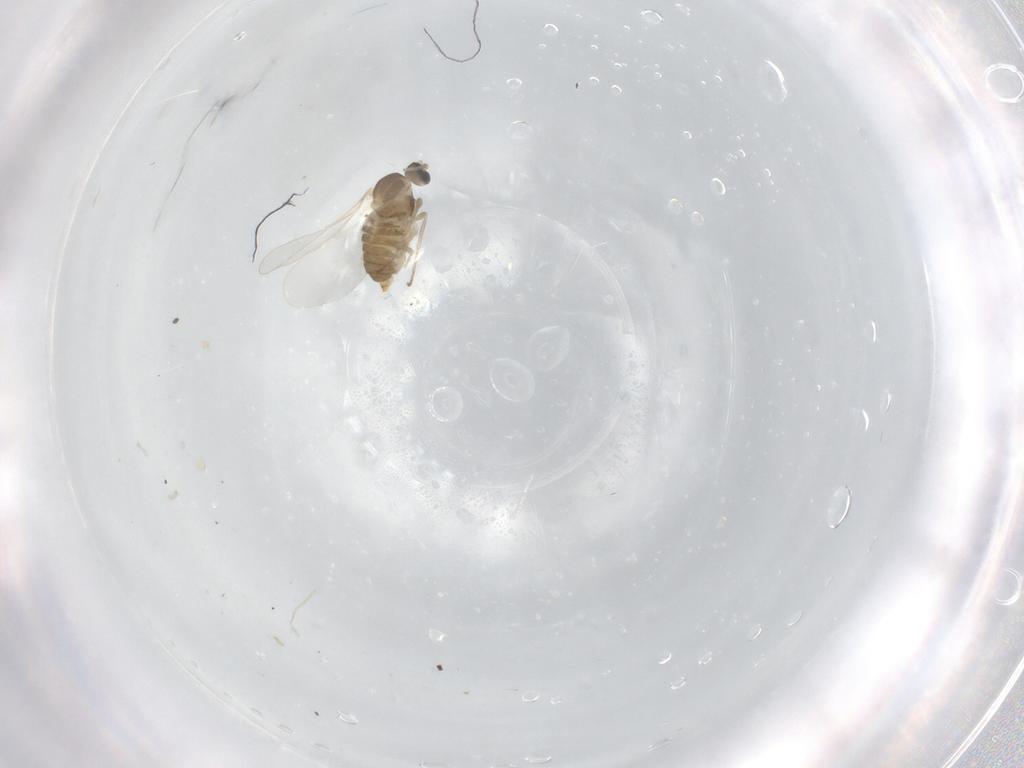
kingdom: Animalia
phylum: Arthropoda
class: Insecta
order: Diptera
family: Cecidomyiidae
